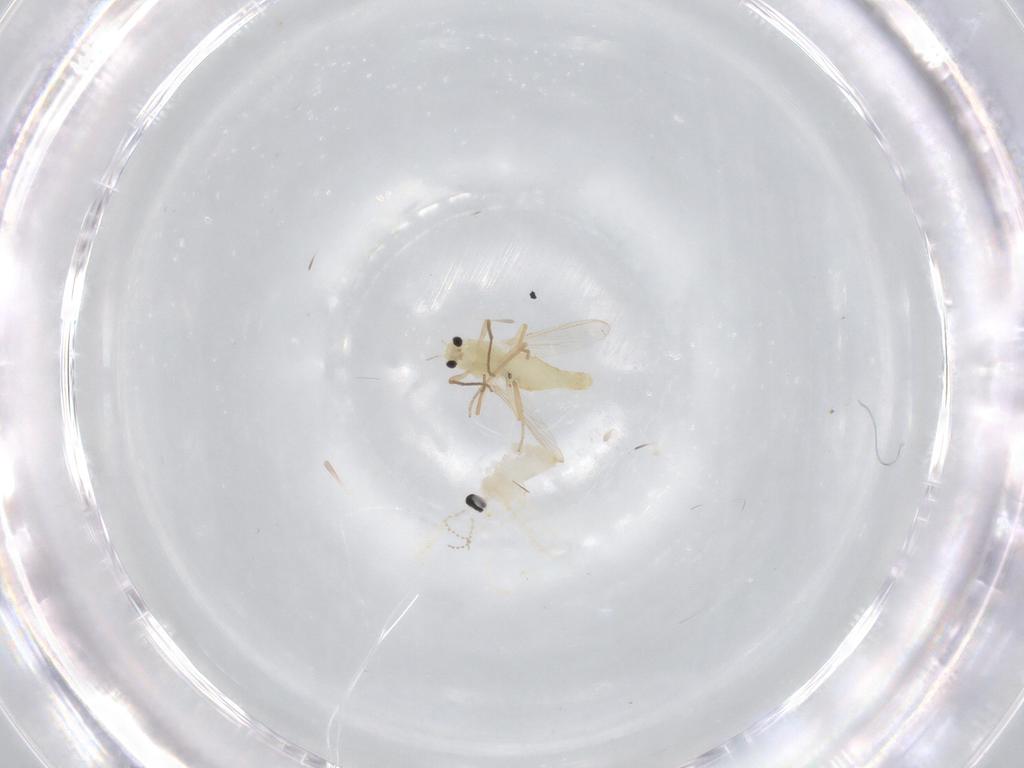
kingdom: Animalia
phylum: Arthropoda
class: Insecta
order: Diptera
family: Chironomidae
